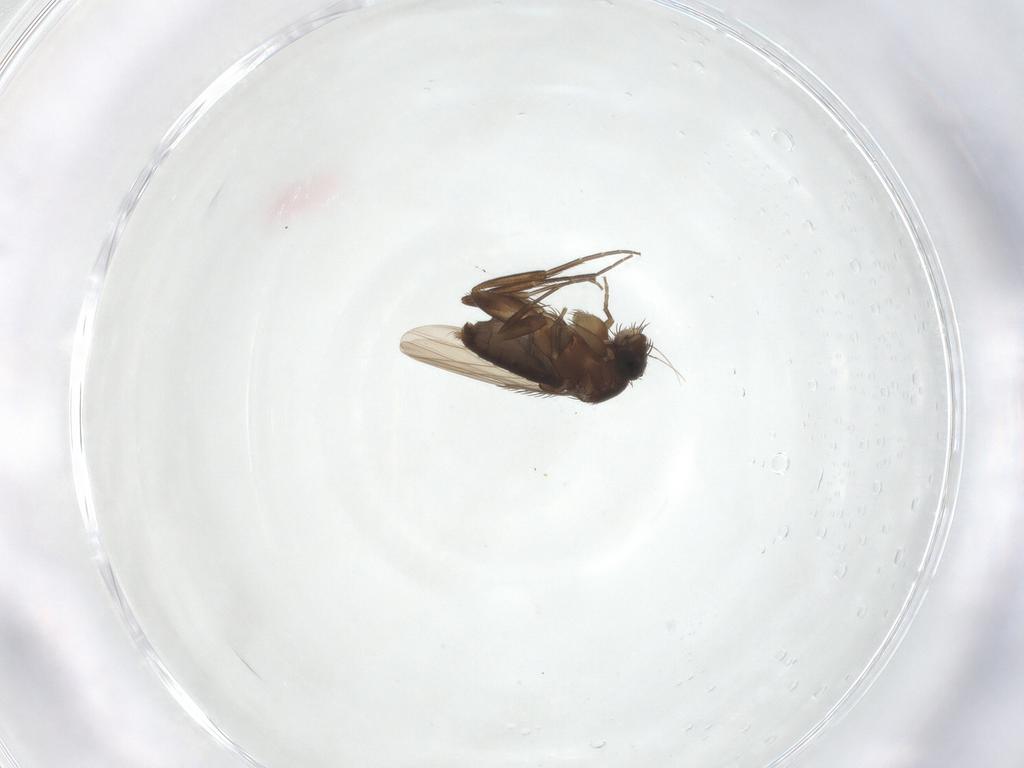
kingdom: Animalia
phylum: Arthropoda
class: Insecta
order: Diptera
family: Phoridae
